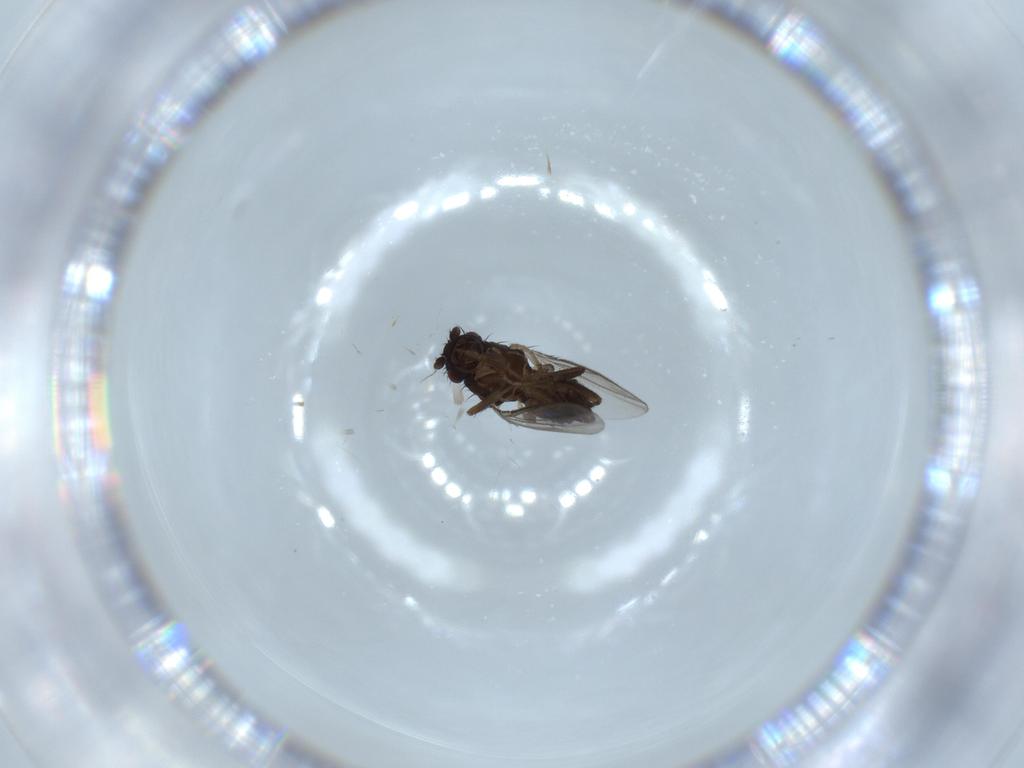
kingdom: Animalia
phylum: Arthropoda
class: Insecta
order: Diptera
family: Sphaeroceridae
